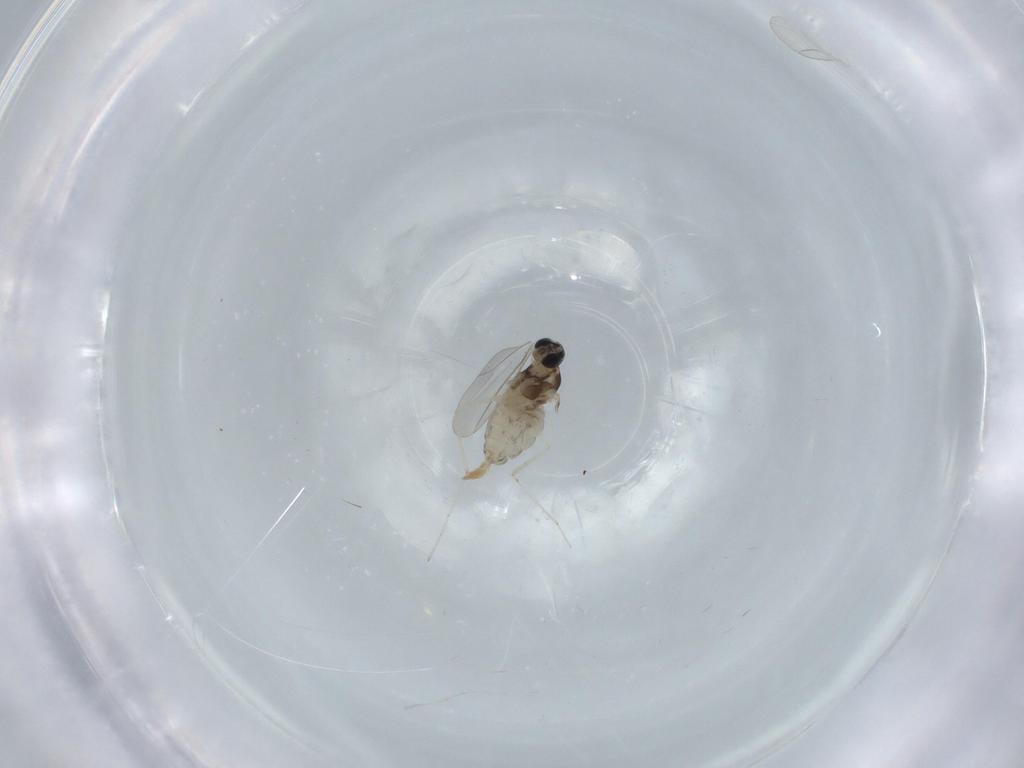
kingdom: Animalia
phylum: Arthropoda
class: Insecta
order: Diptera
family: Cecidomyiidae
